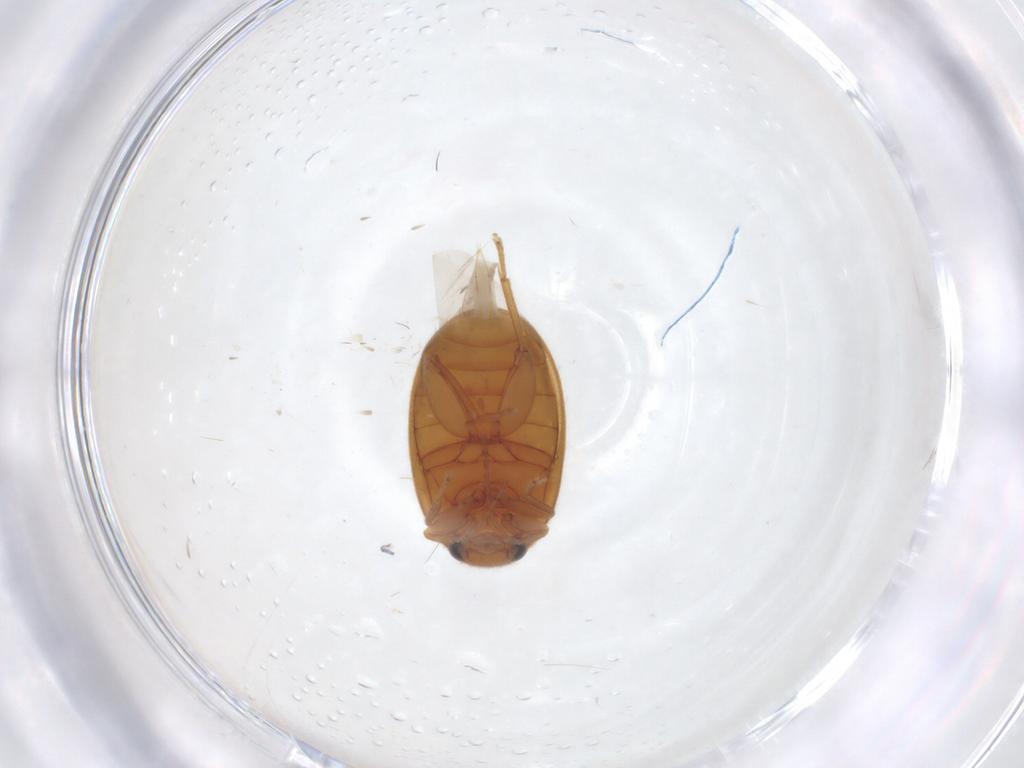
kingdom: Animalia
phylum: Arthropoda
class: Insecta
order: Coleoptera
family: Scirtidae
